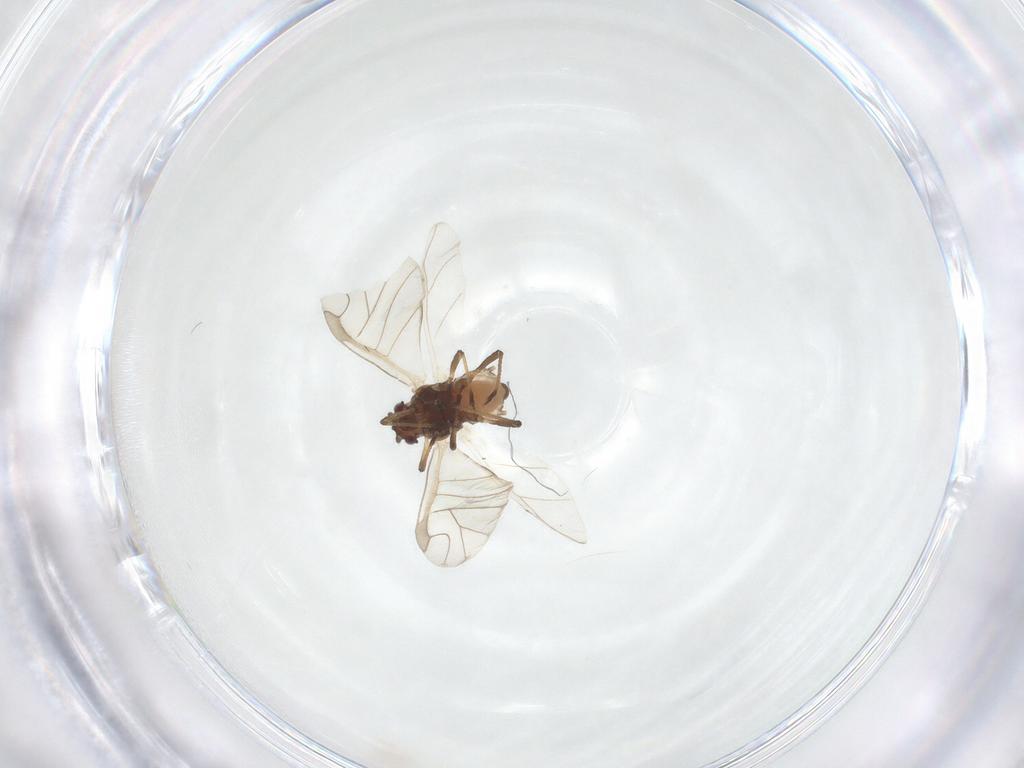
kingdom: Animalia
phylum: Arthropoda
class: Insecta
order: Hemiptera
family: Aphididae
